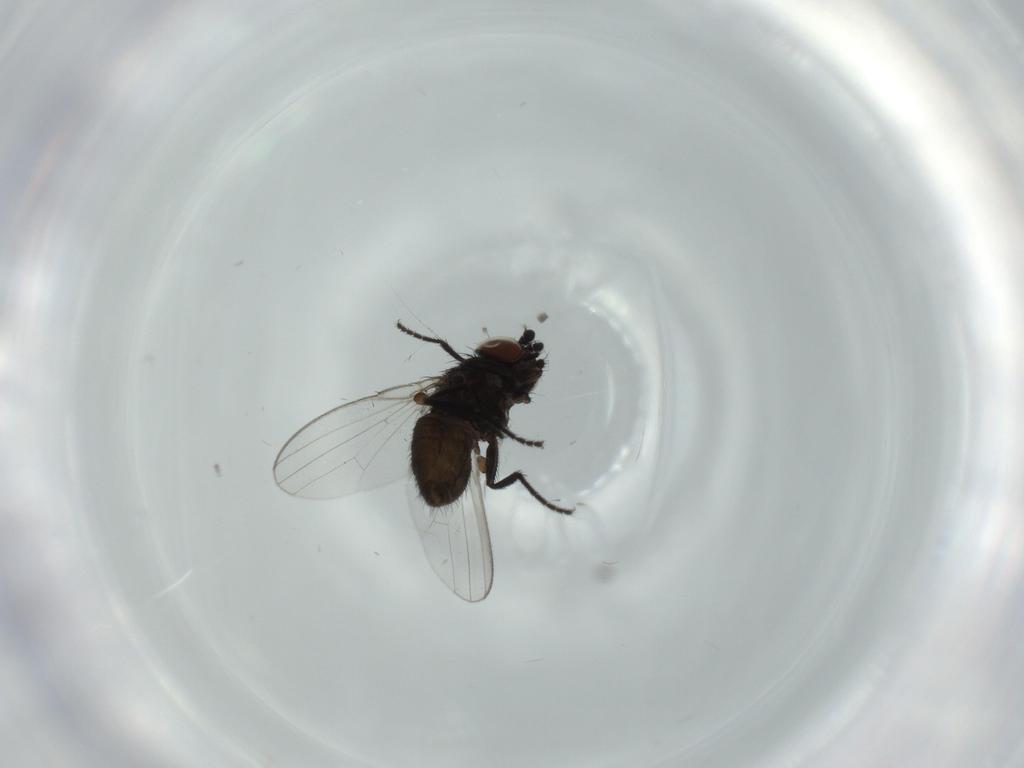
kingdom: Animalia
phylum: Arthropoda
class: Insecta
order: Diptera
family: Milichiidae
